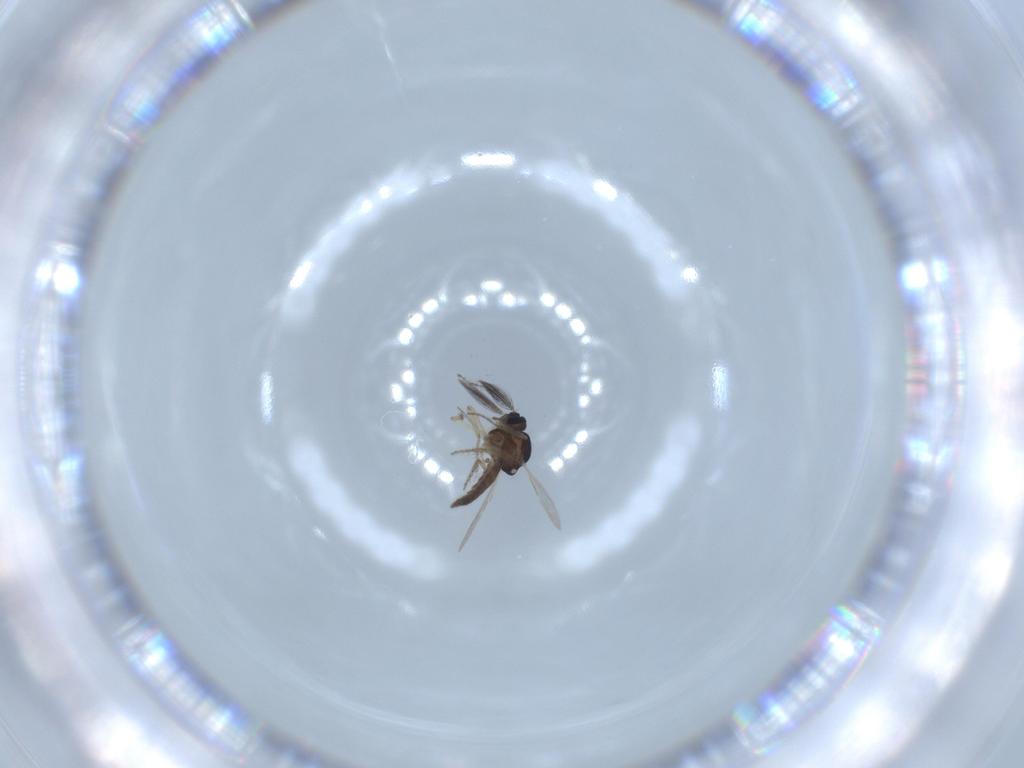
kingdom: Animalia
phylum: Arthropoda
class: Insecta
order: Diptera
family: Ceratopogonidae
